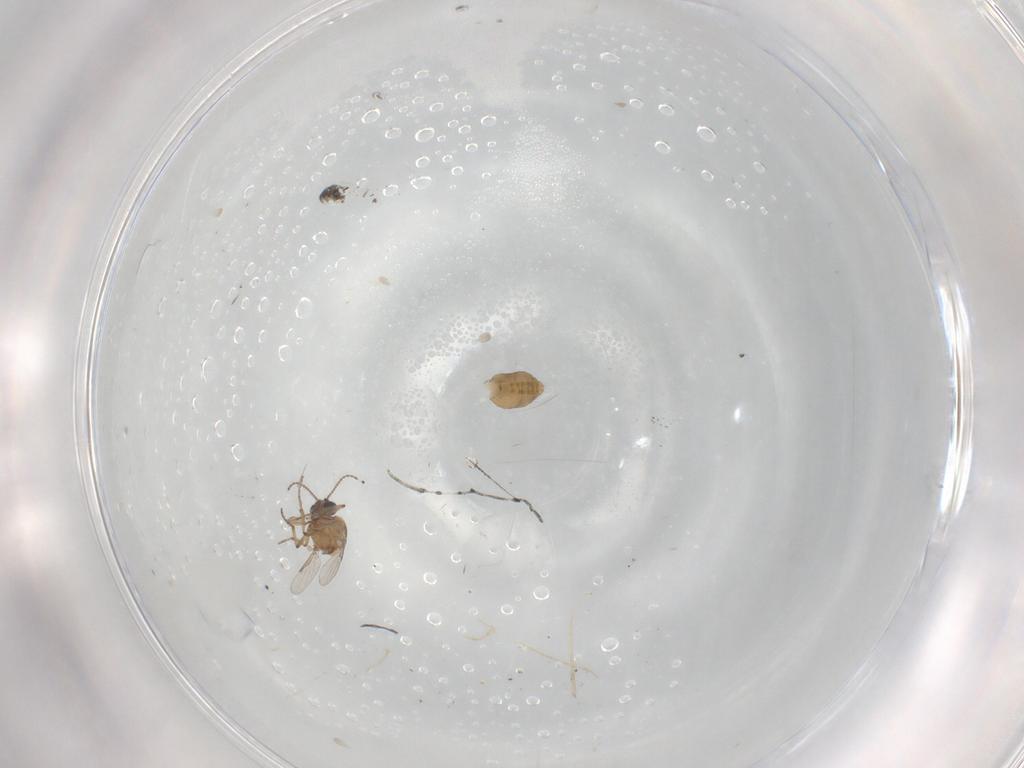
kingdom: Animalia
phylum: Arthropoda
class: Insecta
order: Diptera
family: Ceratopogonidae
